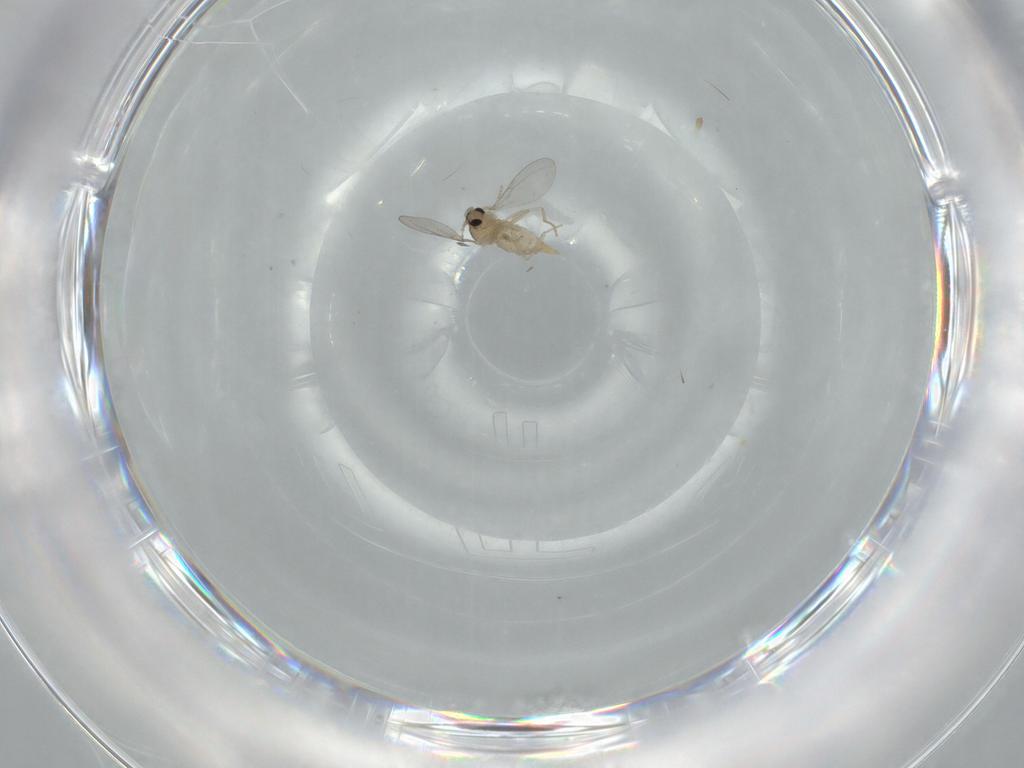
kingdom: Animalia
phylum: Arthropoda
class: Insecta
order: Diptera
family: Cecidomyiidae
